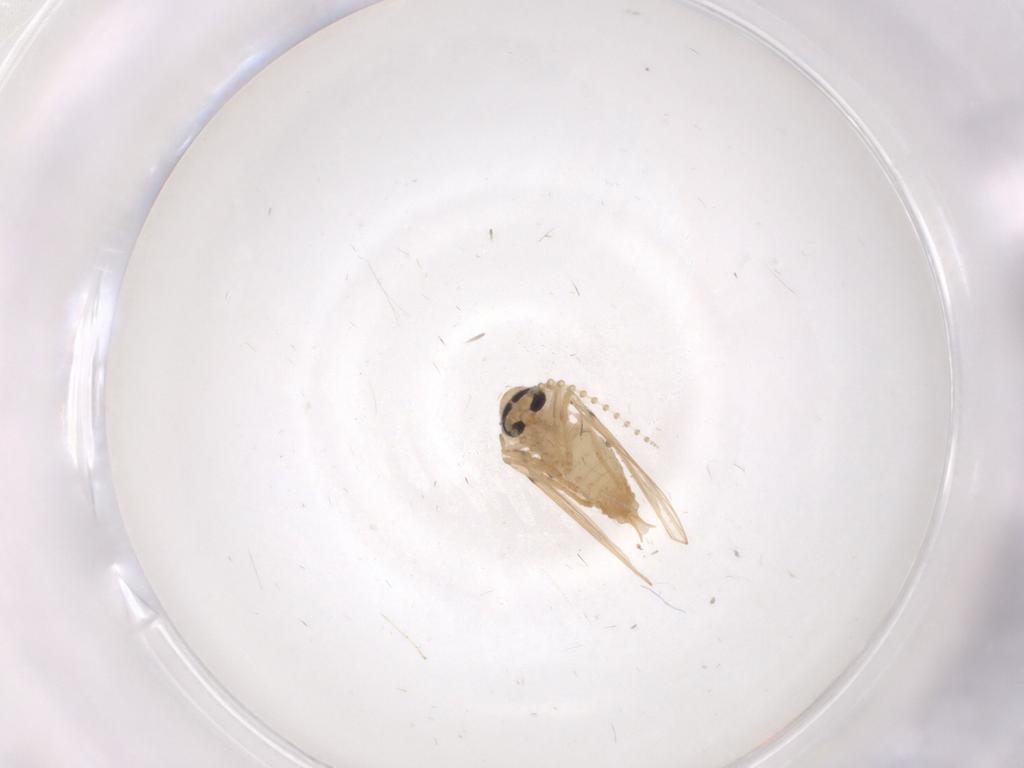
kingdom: Animalia
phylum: Arthropoda
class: Insecta
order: Diptera
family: Psychodidae
